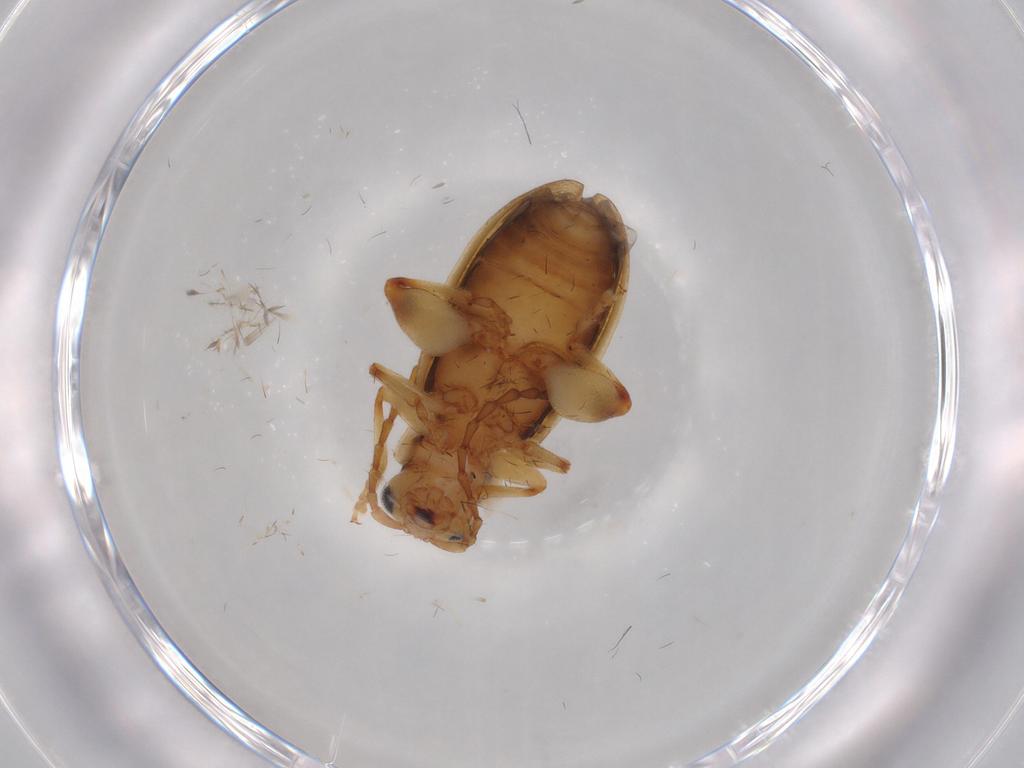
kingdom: Animalia
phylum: Arthropoda
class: Insecta
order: Coleoptera
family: Chrysomelidae
